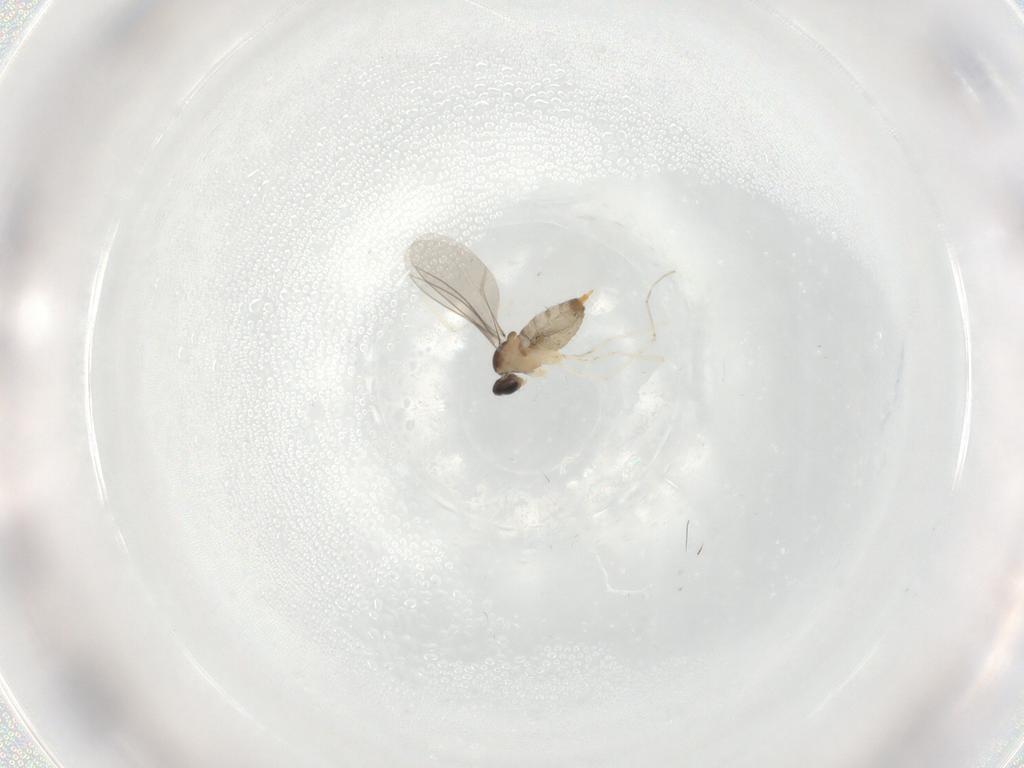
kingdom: Animalia
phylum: Arthropoda
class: Insecta
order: Diptera
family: Cecidomyiidae
